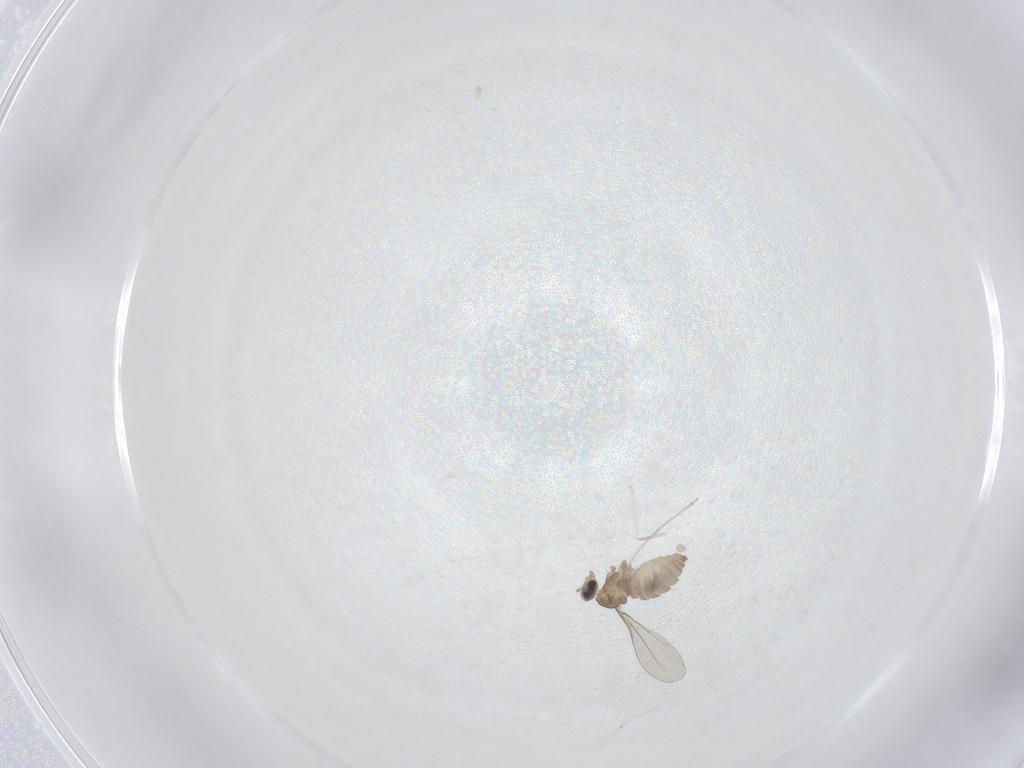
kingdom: Animalia
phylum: Arthropoda
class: Insecta
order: Diptera
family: Cecidomyiidae
